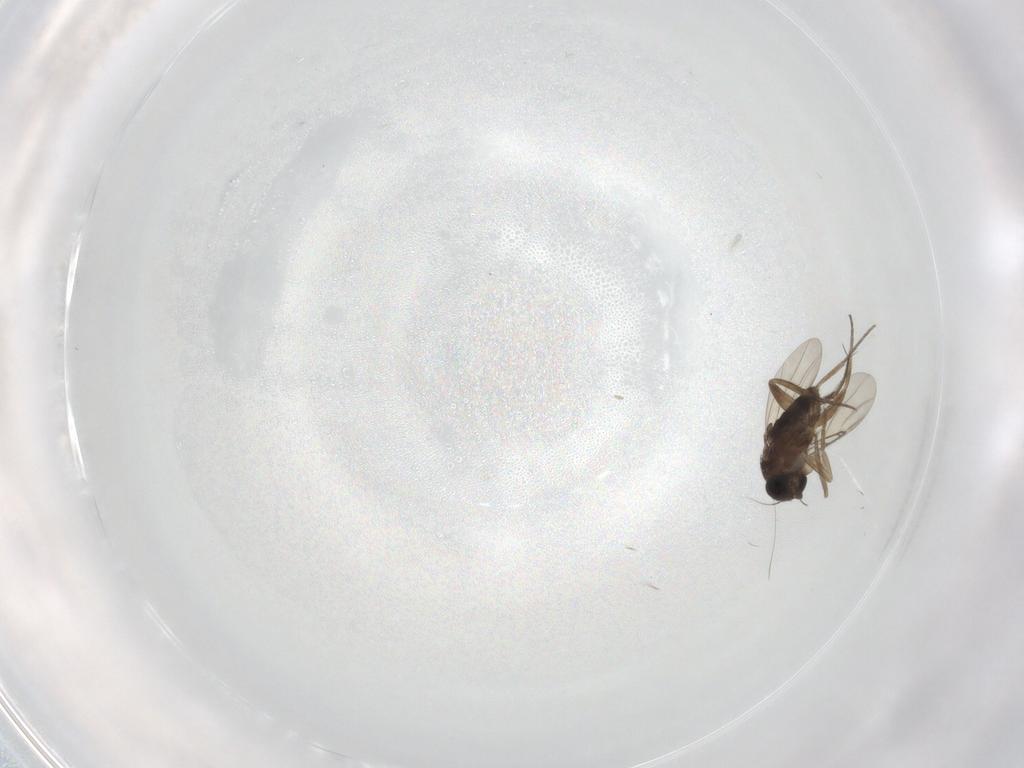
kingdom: Animalia
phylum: Arthropoda
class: Insecta
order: Diptera
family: Phoridae
